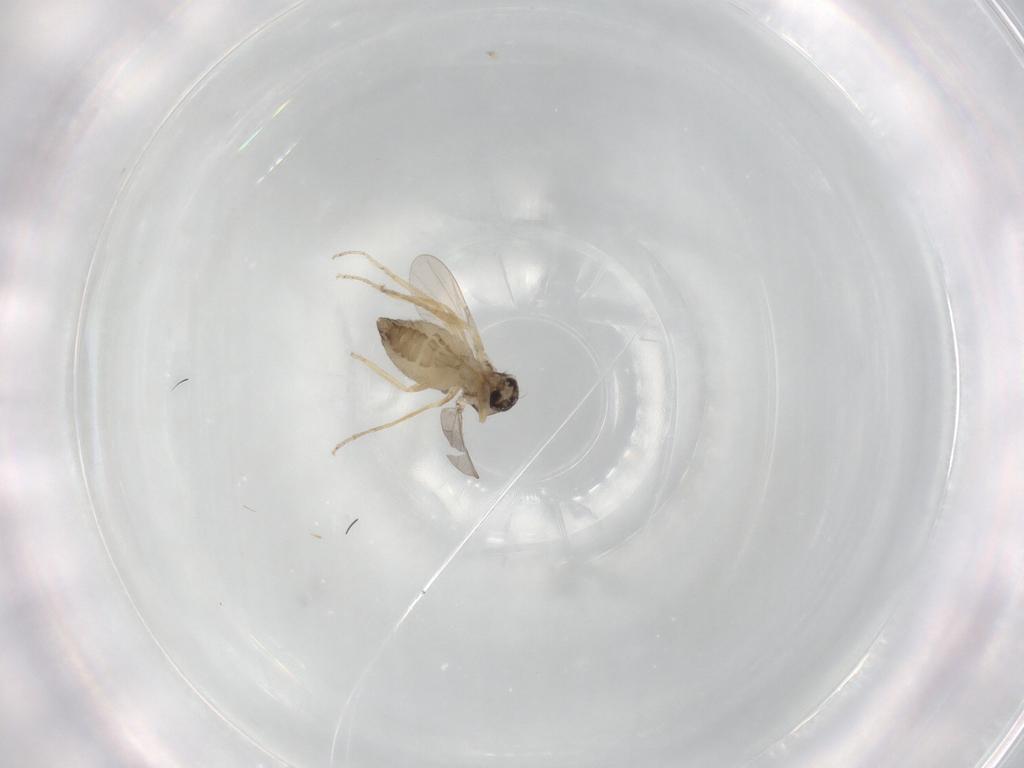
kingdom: Animalia
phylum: Arthropoda
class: Insecta
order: Diptera
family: Ceratopogonidae
